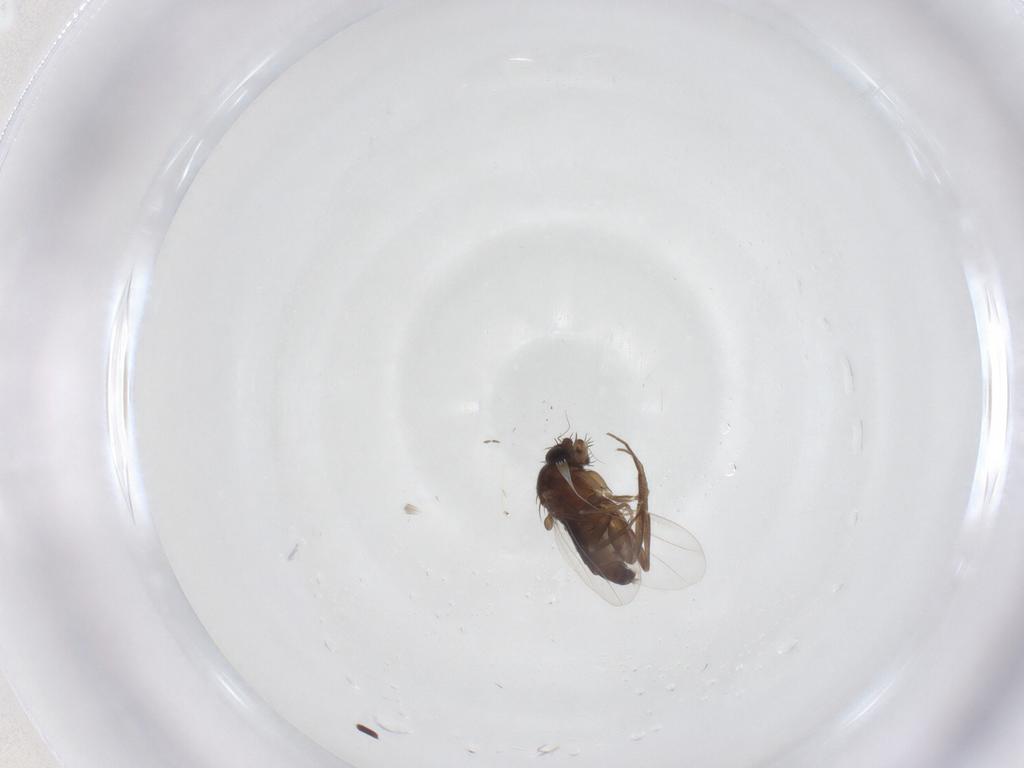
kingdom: Animalia
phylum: Arthropoda
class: Insecta
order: Diptera
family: Phoridae
